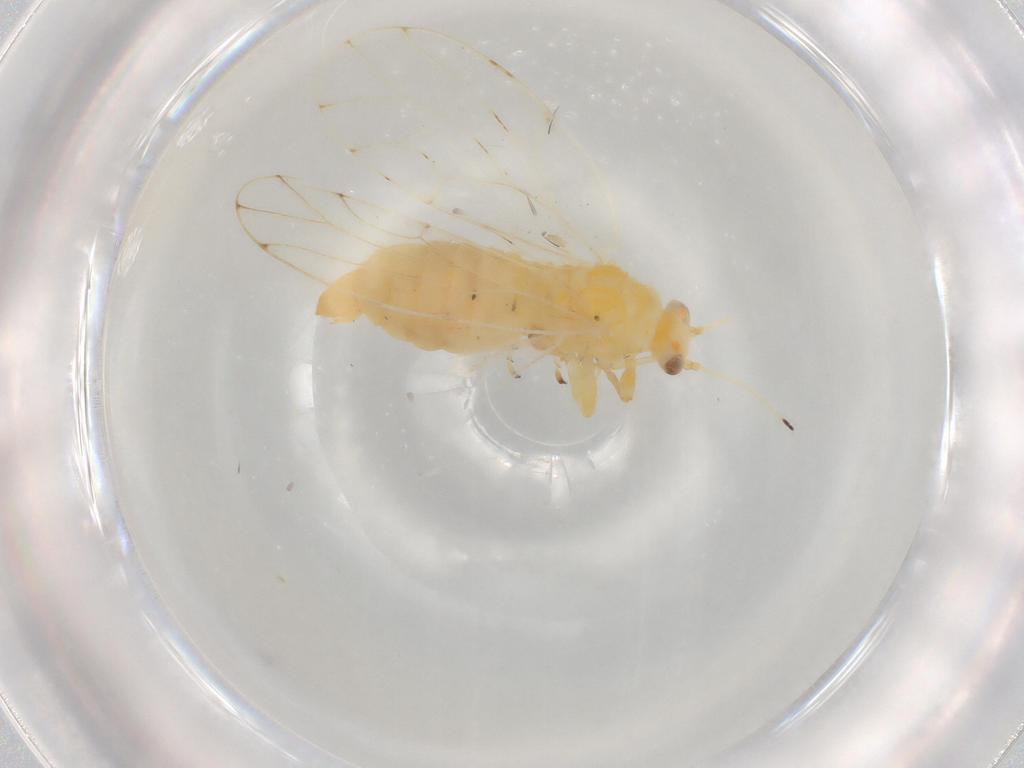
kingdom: Animalia
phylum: Arthropoda
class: Insecta
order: Hemiptera
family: Aphalaridae
